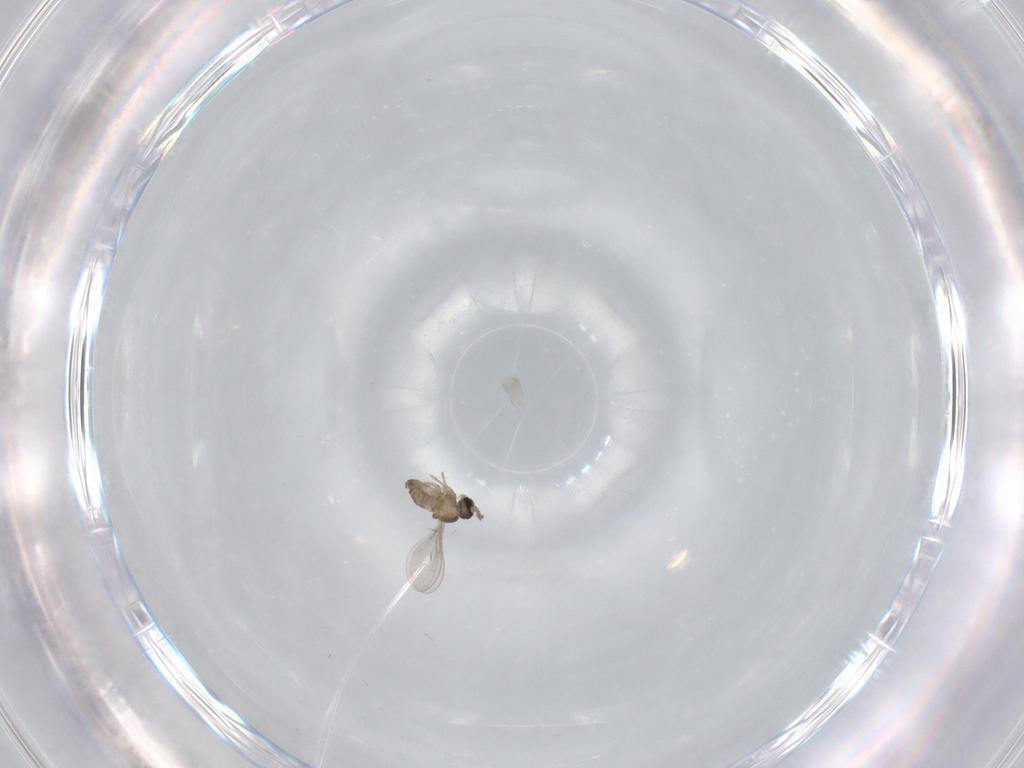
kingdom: Animalia
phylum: Arthropoda
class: Insecta
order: Diptera
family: Cecidomyiidae
